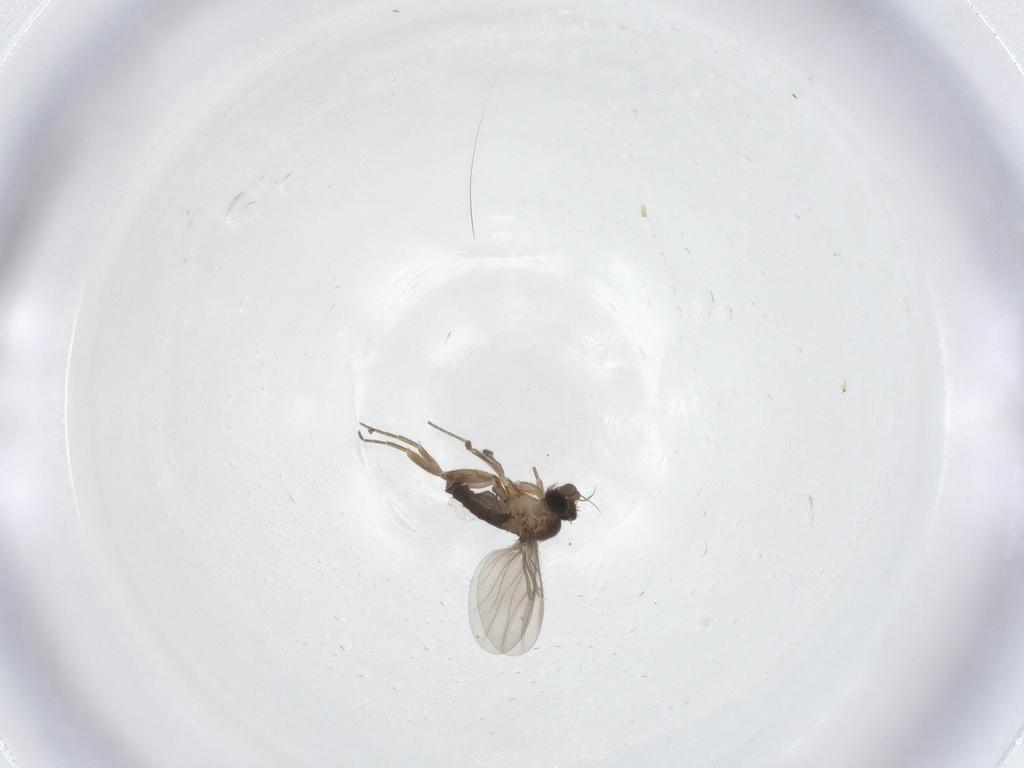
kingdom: Animalia
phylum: Arthropoda
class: Insecta
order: Diptera
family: Phoridae
